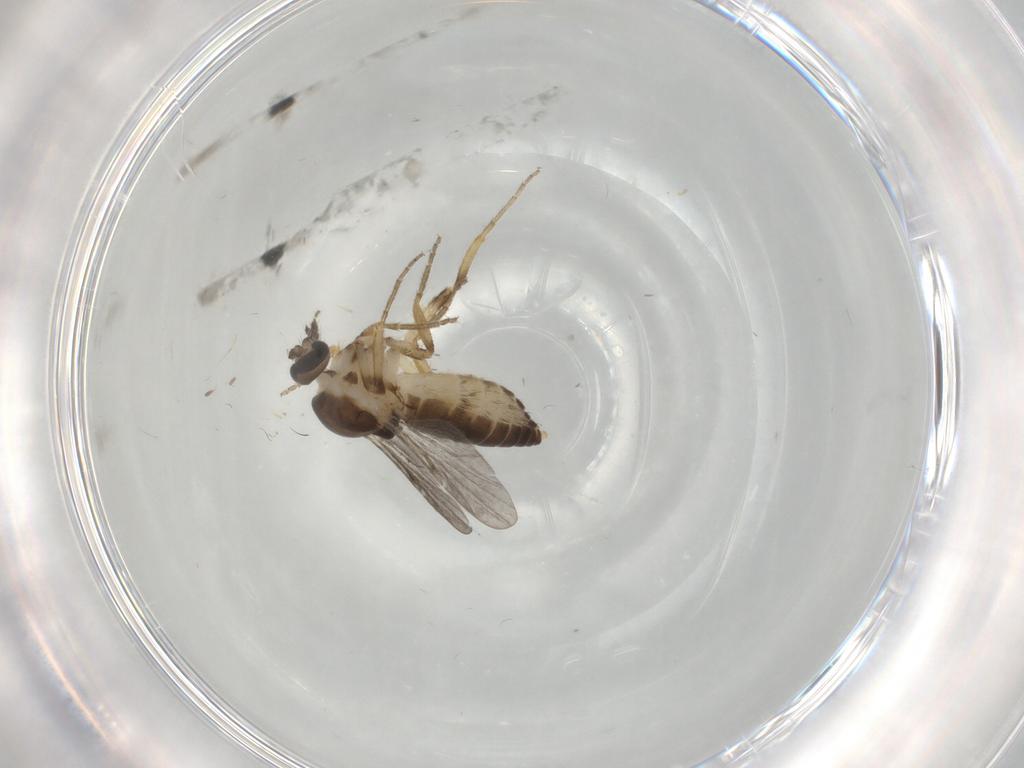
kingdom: Animalia
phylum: Arthropoda
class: Insecta
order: Diptera
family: Ceratopogonidae
